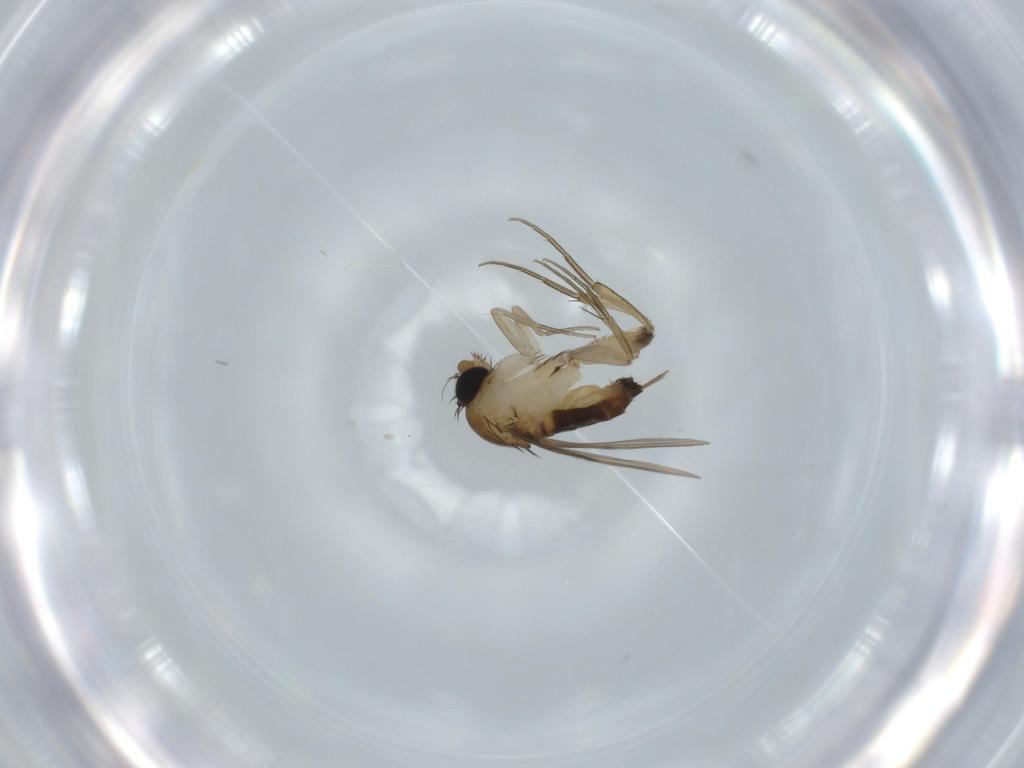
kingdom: Animalia
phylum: Arthropoda
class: Insecta
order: Diptera
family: Phoridae
